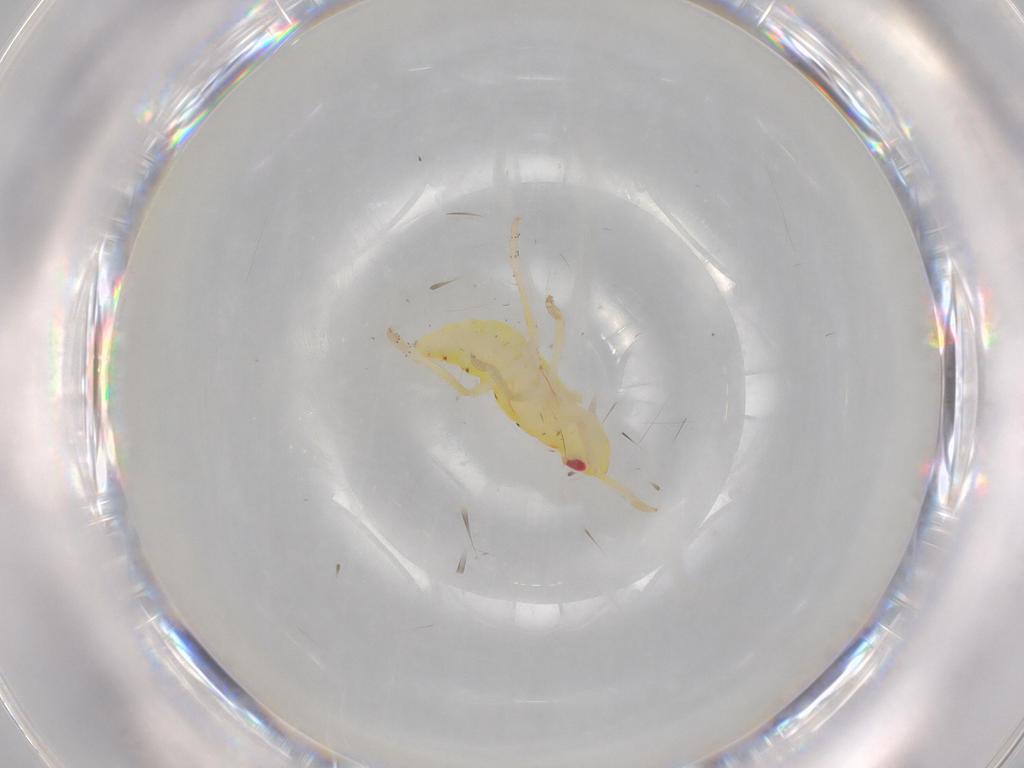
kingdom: Animalia
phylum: Arthropoda
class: Insecta
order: Hemiptera
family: Tropiduchidae
